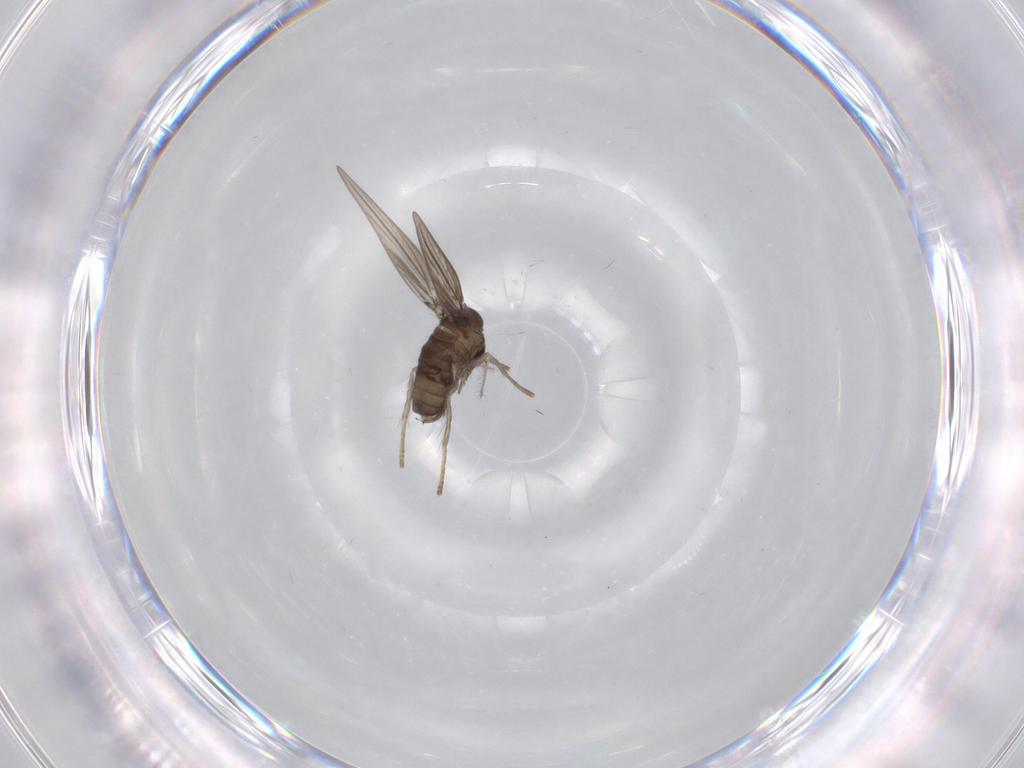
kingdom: Animalia
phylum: Arthropoda
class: Insecta
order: Diptera
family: Psychodidae
